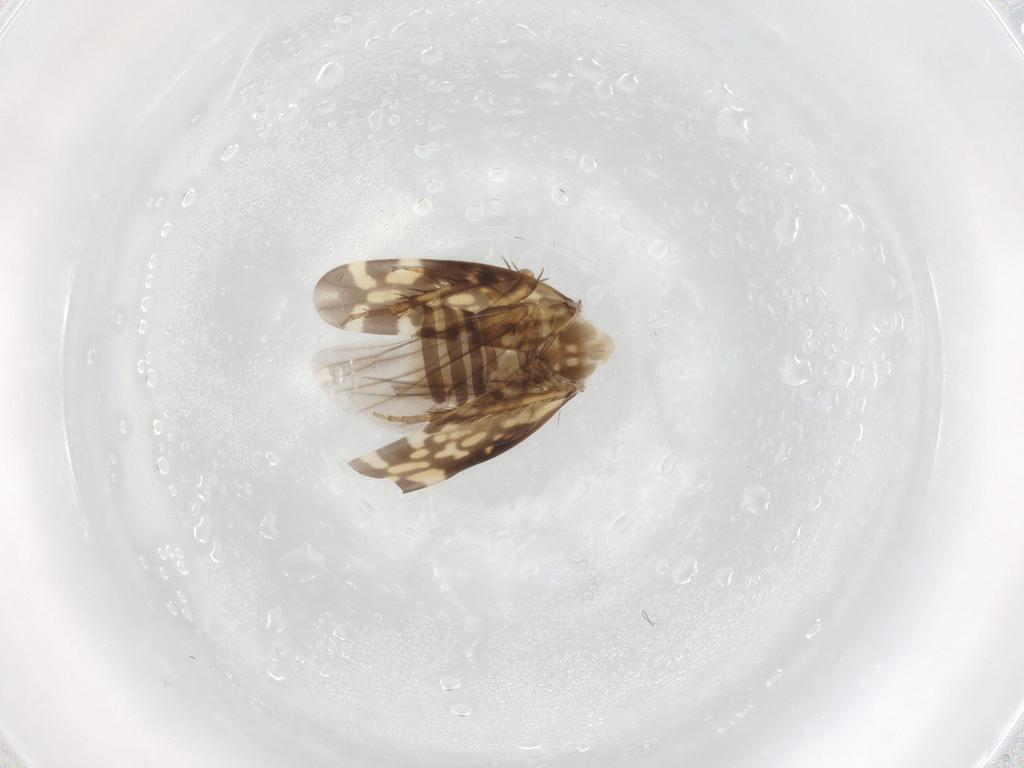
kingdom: Animalia
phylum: Arthropoda
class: Insecta
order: Hemiptera
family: Cicadellidae
